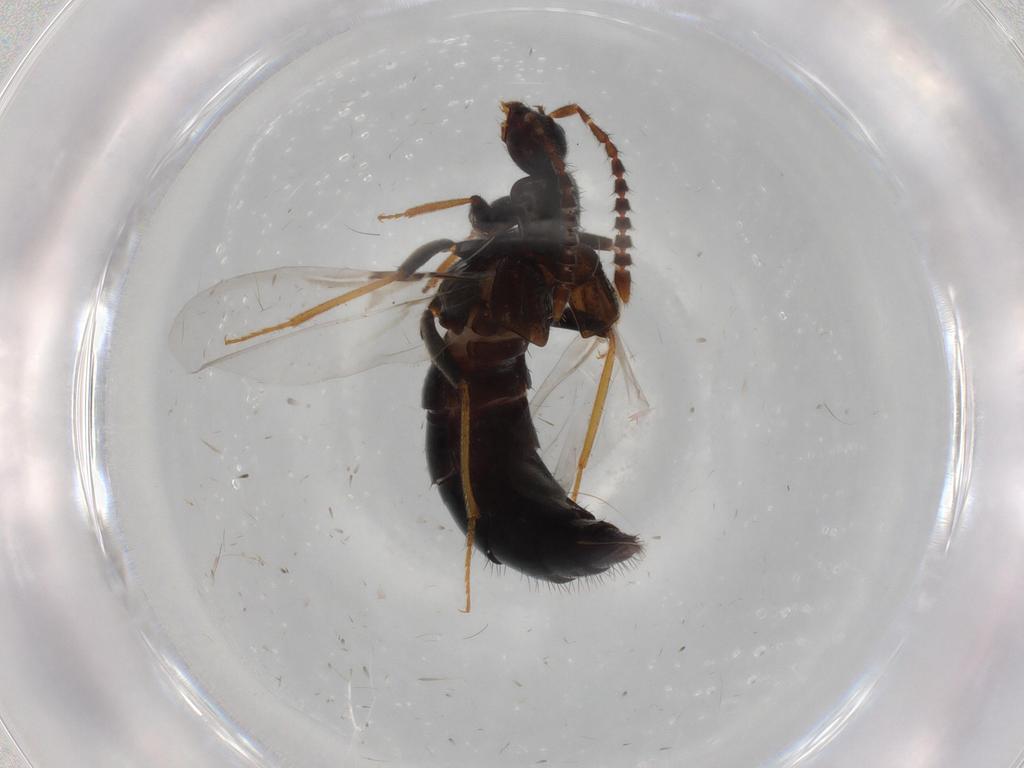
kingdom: Animalia
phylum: Arthropoda
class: Insecta
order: Coleoptera
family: Staphylinidae
